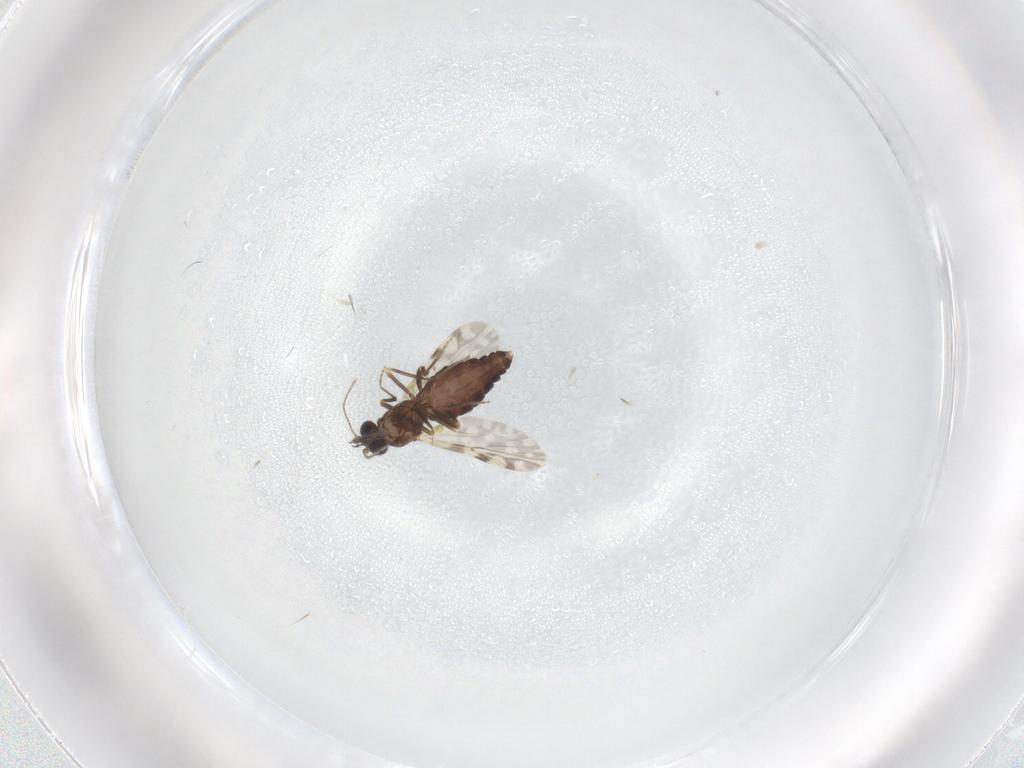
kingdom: Animalia
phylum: Arthropoda
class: Insecta
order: Diptera
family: Ceratopogonidae
